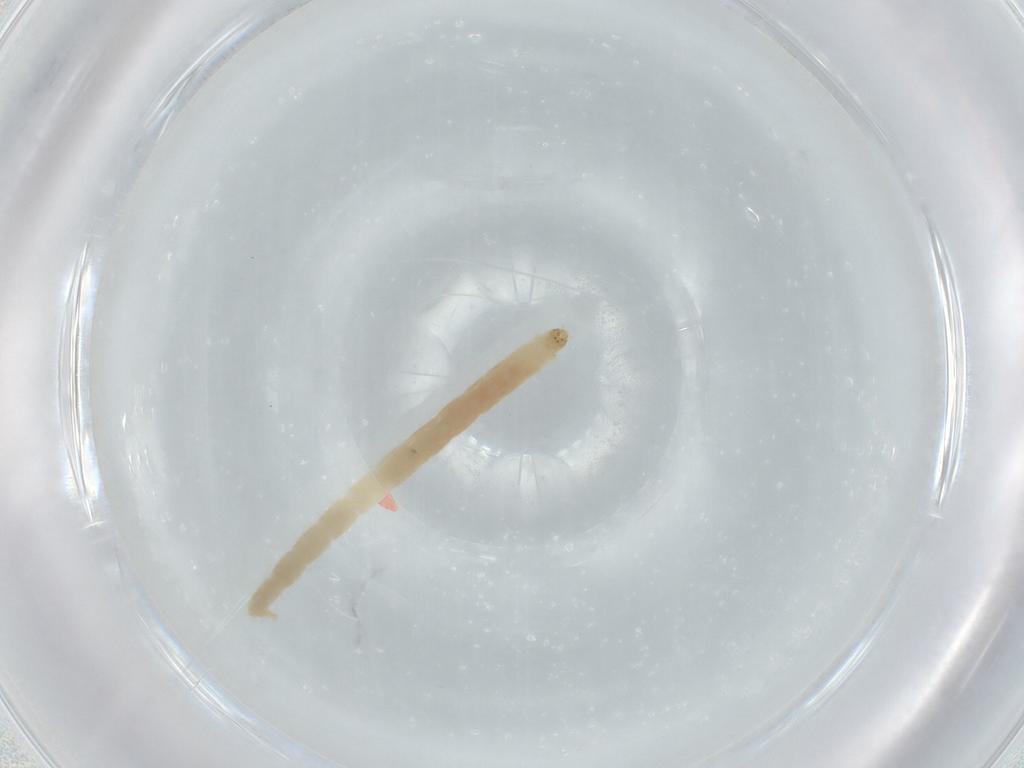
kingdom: Animalia
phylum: Arthropoda
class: Insecta
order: Diptera
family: Chironomidae
